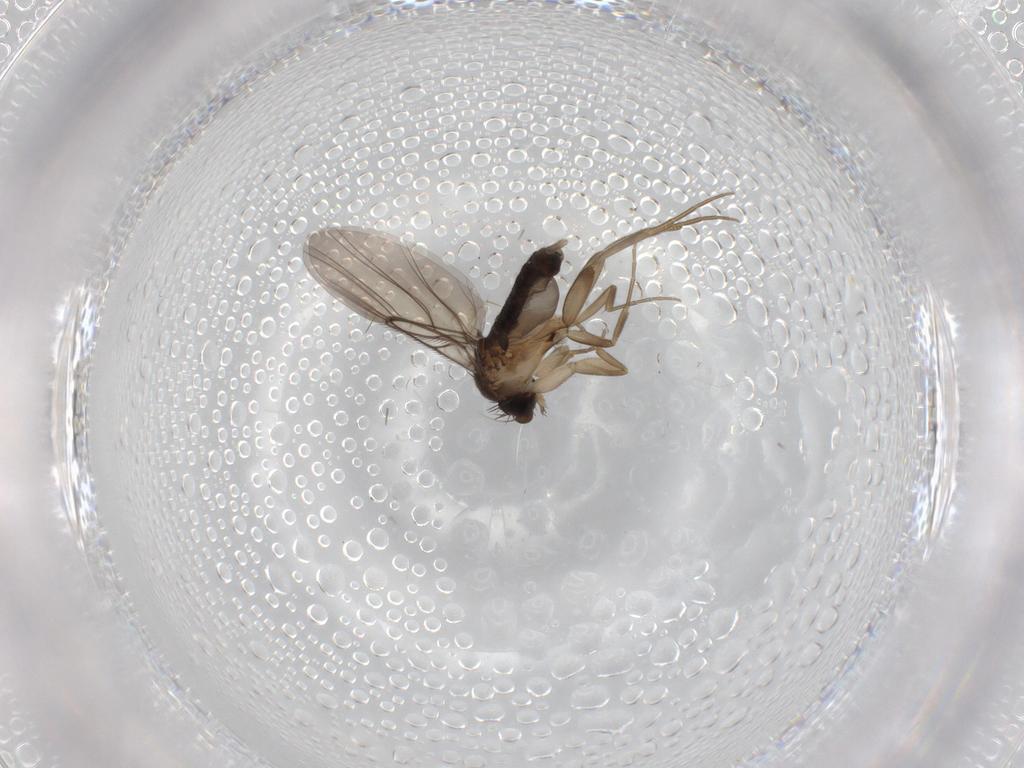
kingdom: Animalia
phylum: Arthropoda
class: Insecta
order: Diptera
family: Phoridae
